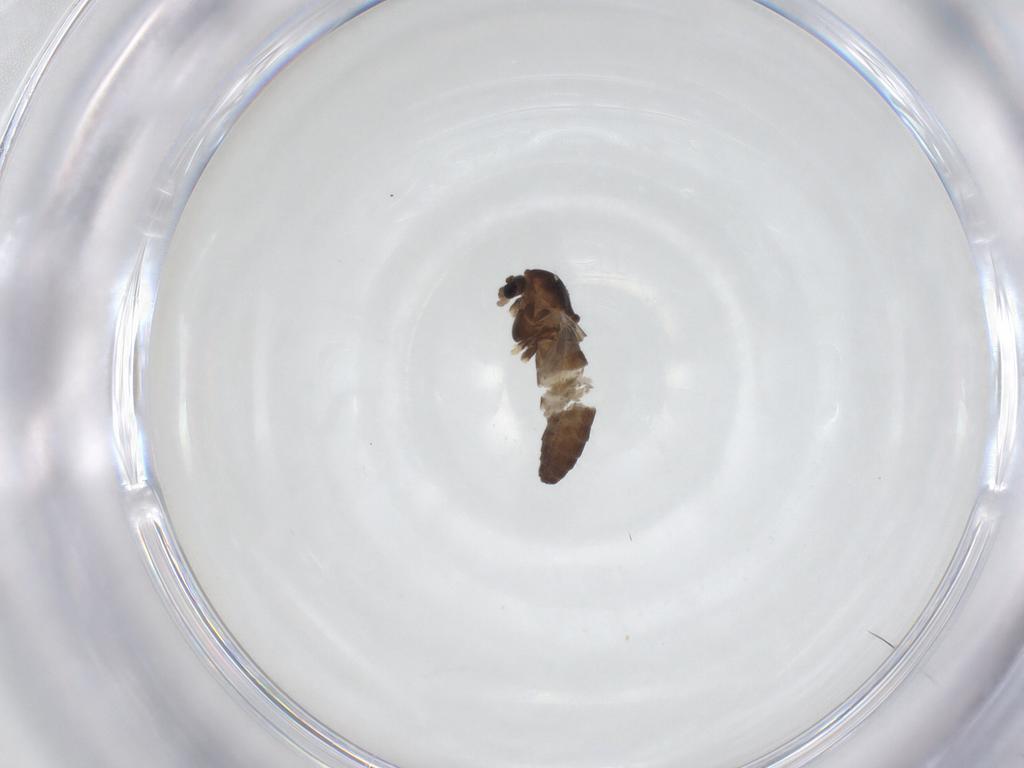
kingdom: Animalia
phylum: Arthropoda
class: Insecta
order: Diptera
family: Chironomidae
